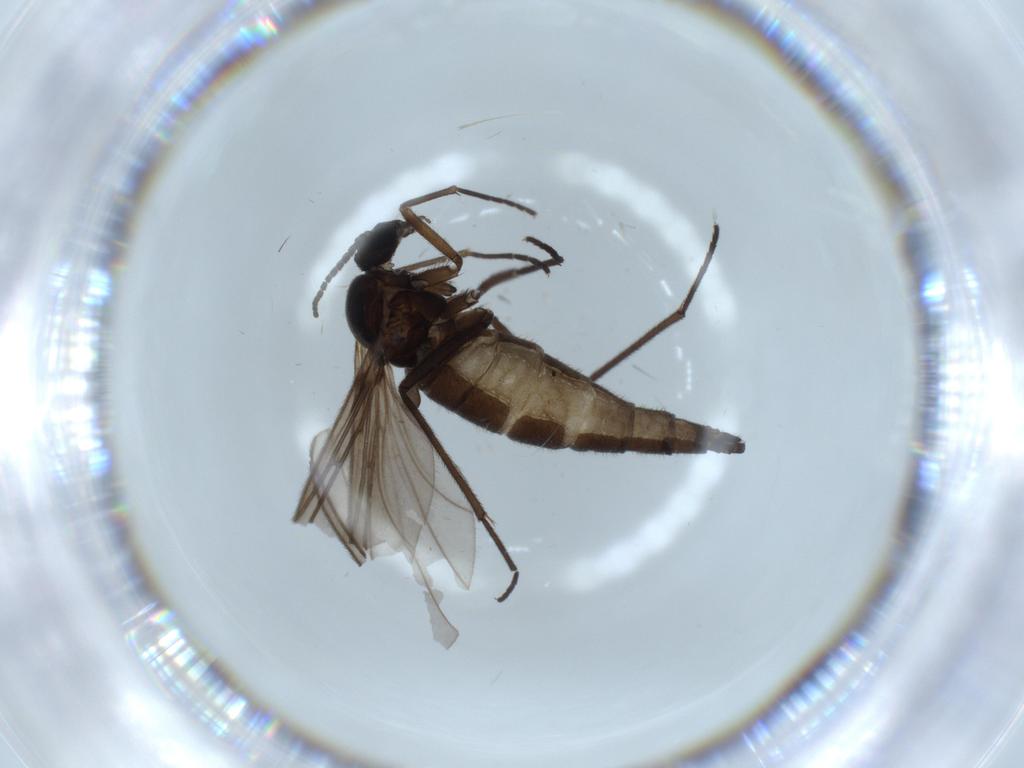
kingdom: Animalia
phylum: Arthropoda
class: Insecta
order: Diptera
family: Sciaridae
